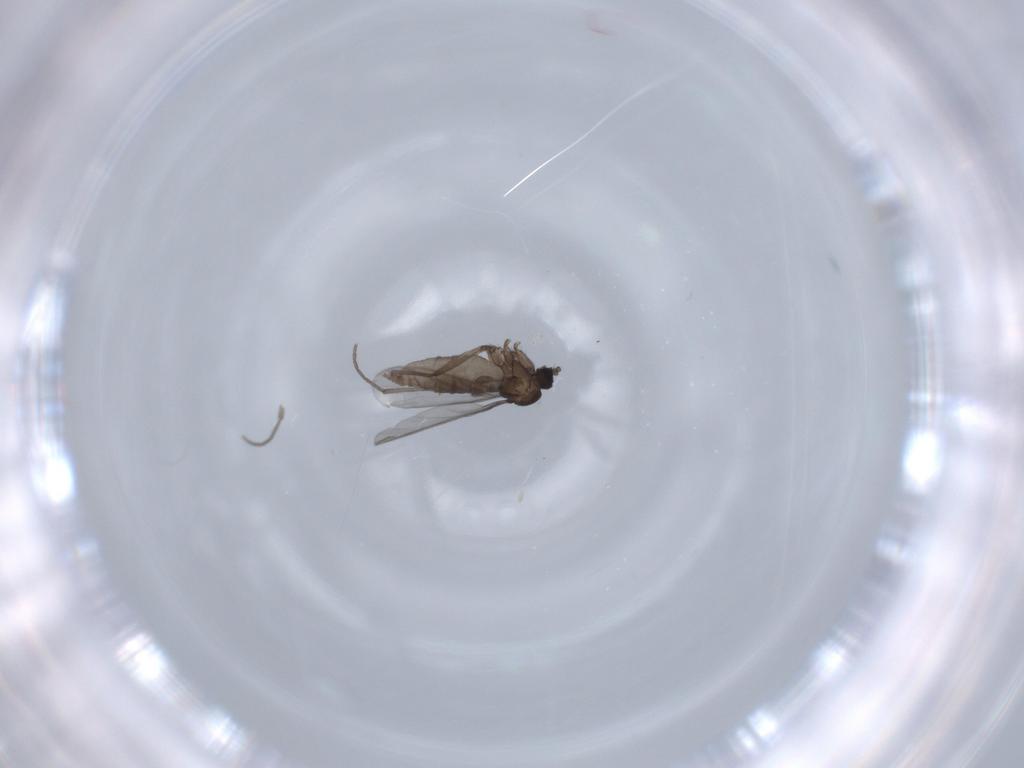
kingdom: Animalia
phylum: Arthropoda
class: Insecta
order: Diptera
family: Sciaridae
